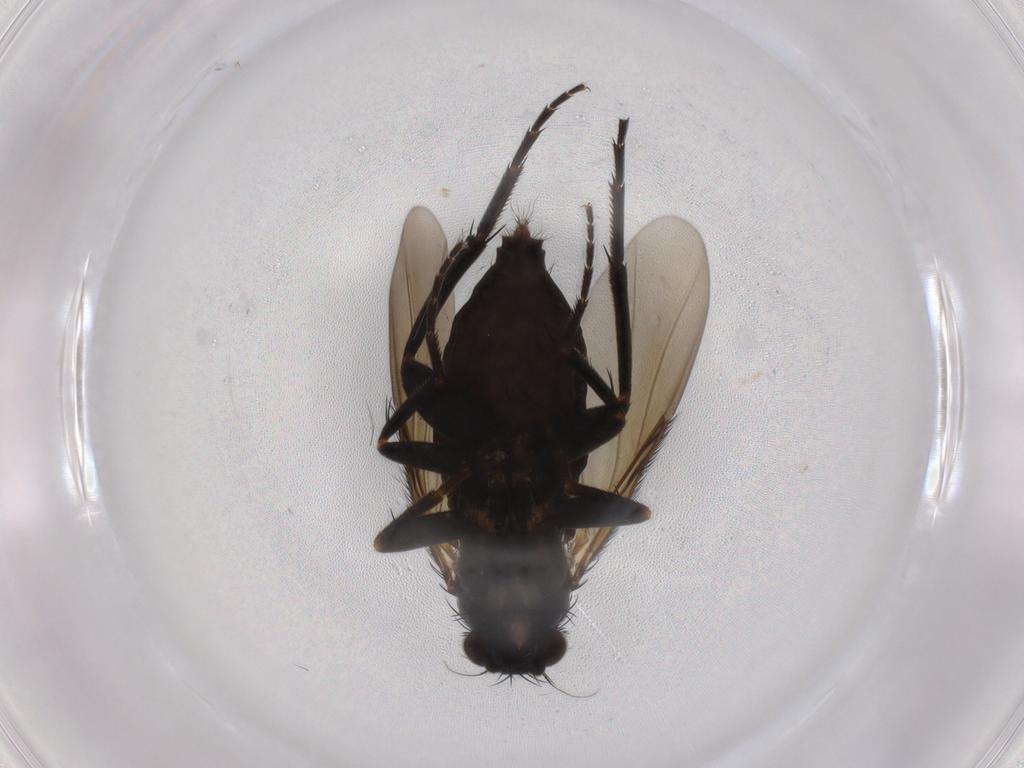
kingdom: Animalia
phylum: Arthropoda
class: Insecta
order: Diptera
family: Phoridae
